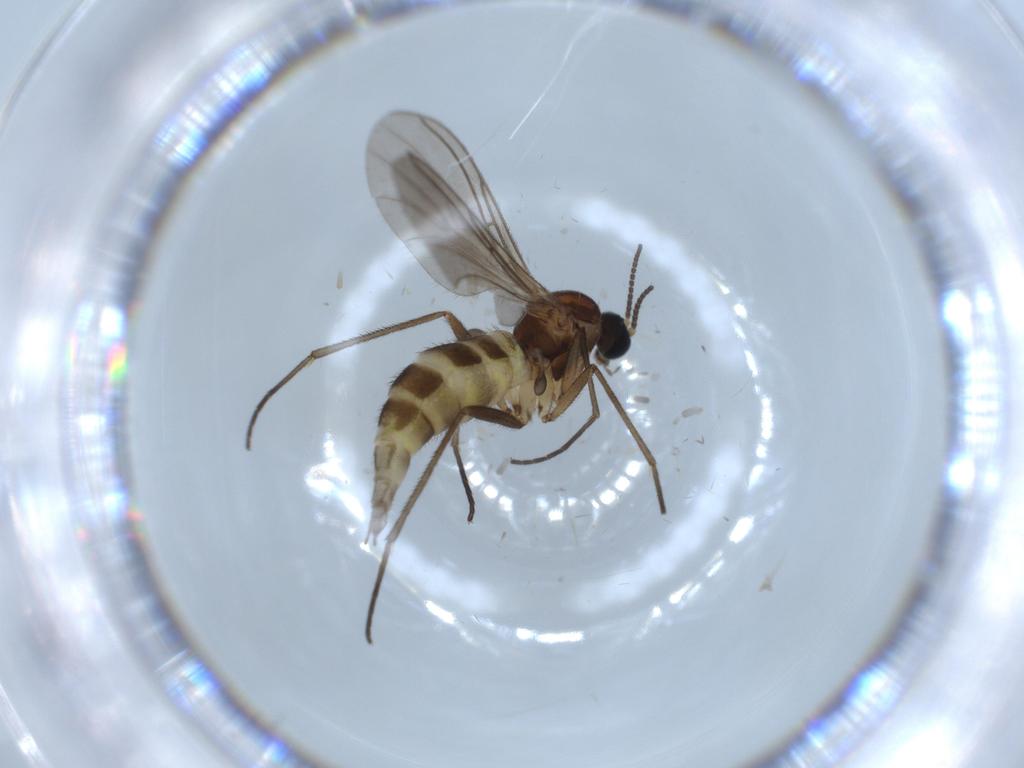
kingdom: Animalia
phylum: Arthropoda
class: Insecta
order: Diptera
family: Sciaridae
